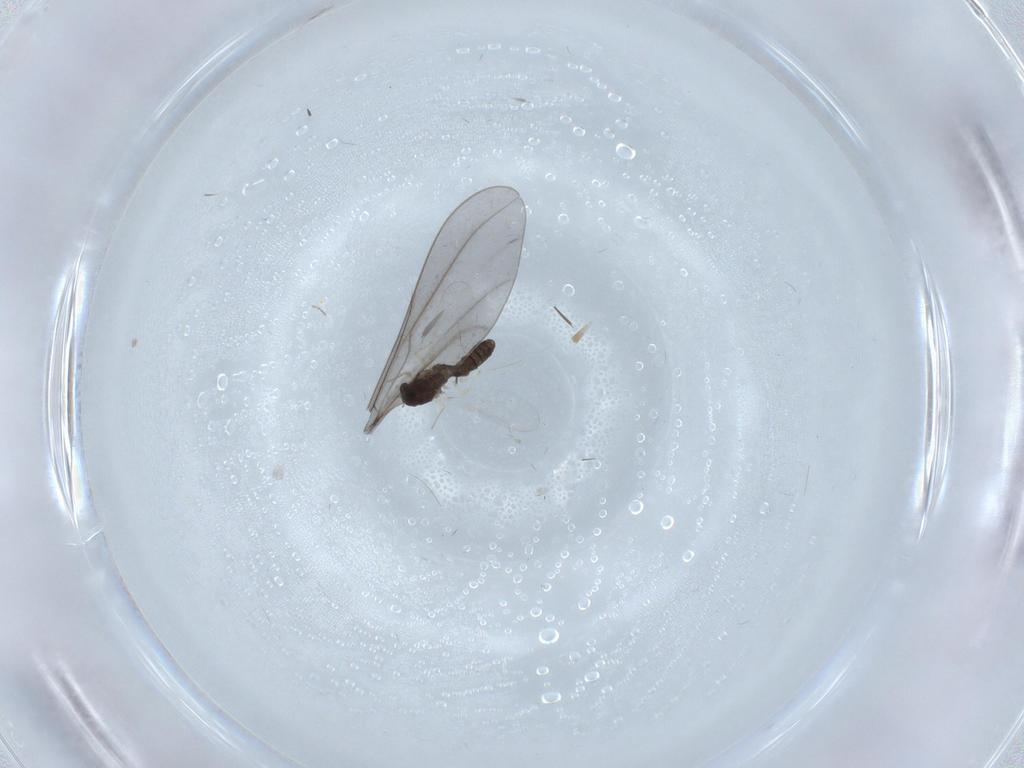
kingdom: Animalia
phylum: Arthropoda
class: Insecta
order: Diptera
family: Chironomidae
